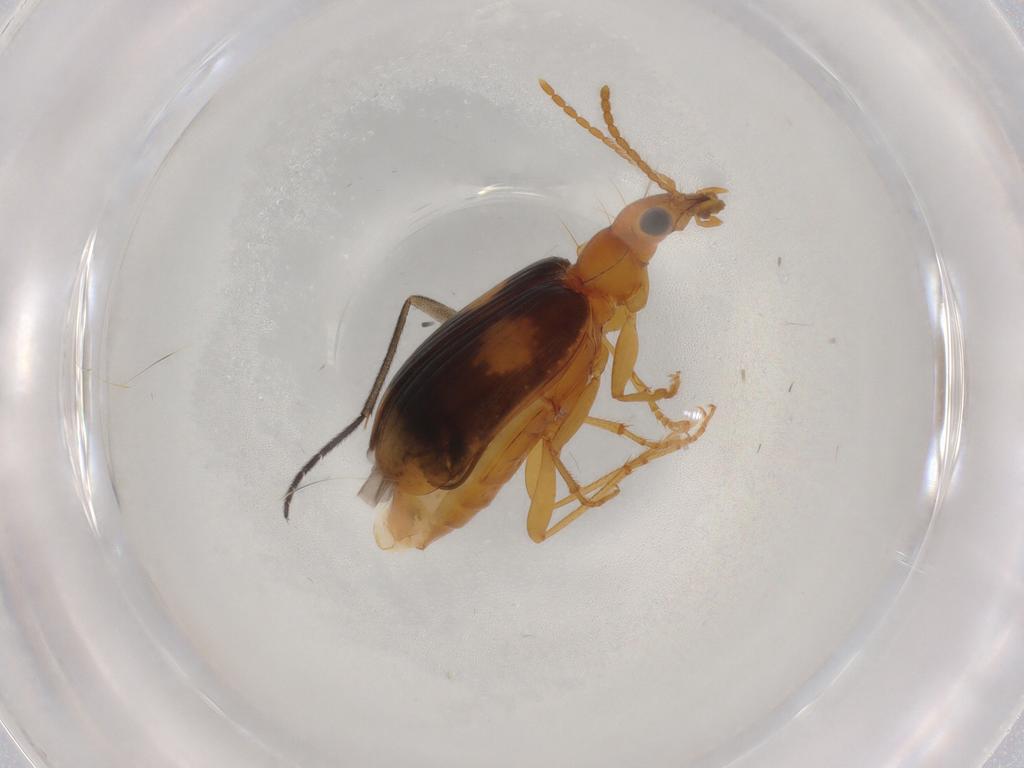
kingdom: Animalia
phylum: Arthropoda
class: Insecta
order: Coleoptera
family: Carabidae
